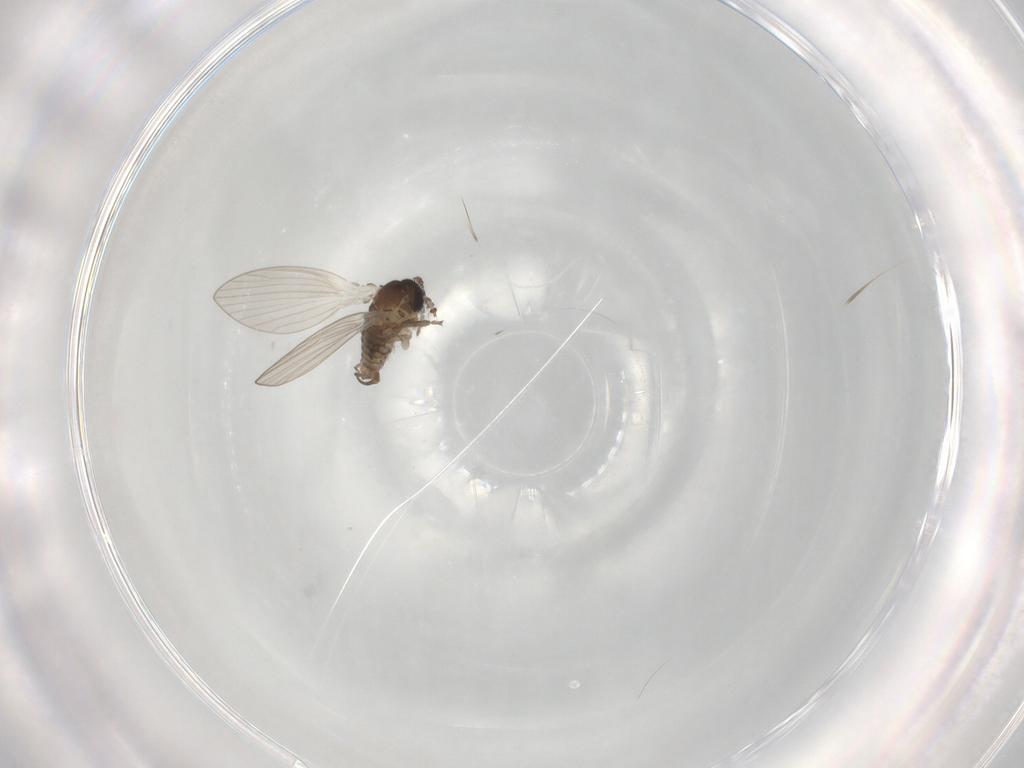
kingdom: Animalia
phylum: Arthropoda
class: Insecta
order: Diptera
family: Psychodidae
